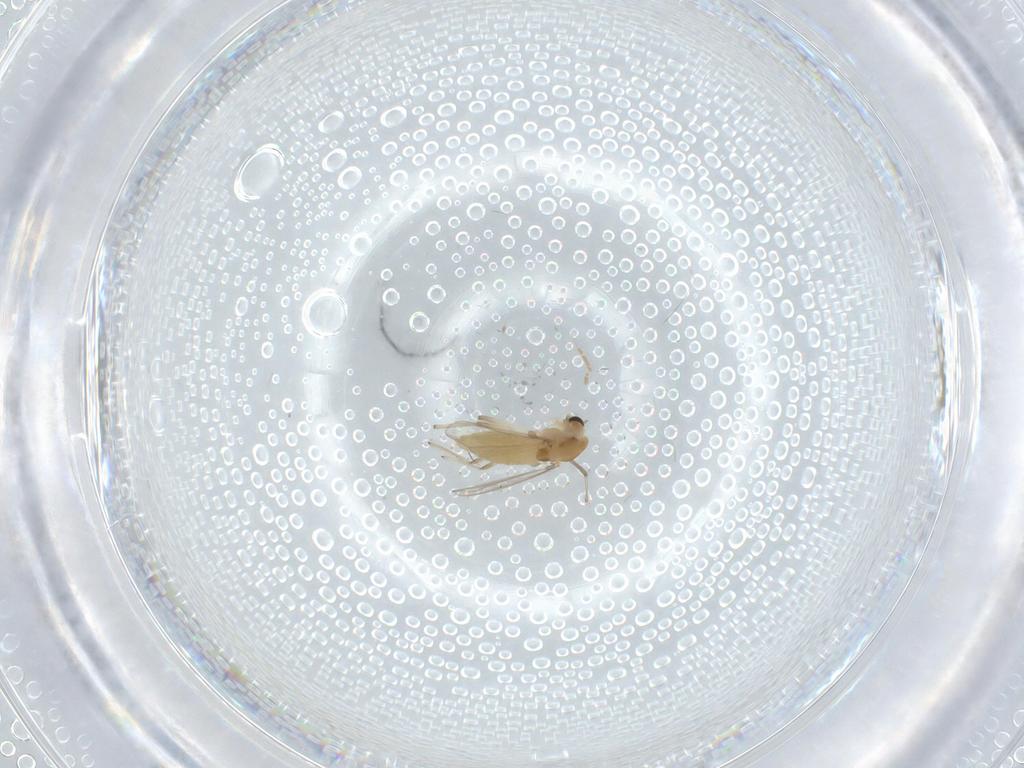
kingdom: Animalia
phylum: Arthropoda
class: Insecta
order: Diptera
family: Chironomidae
